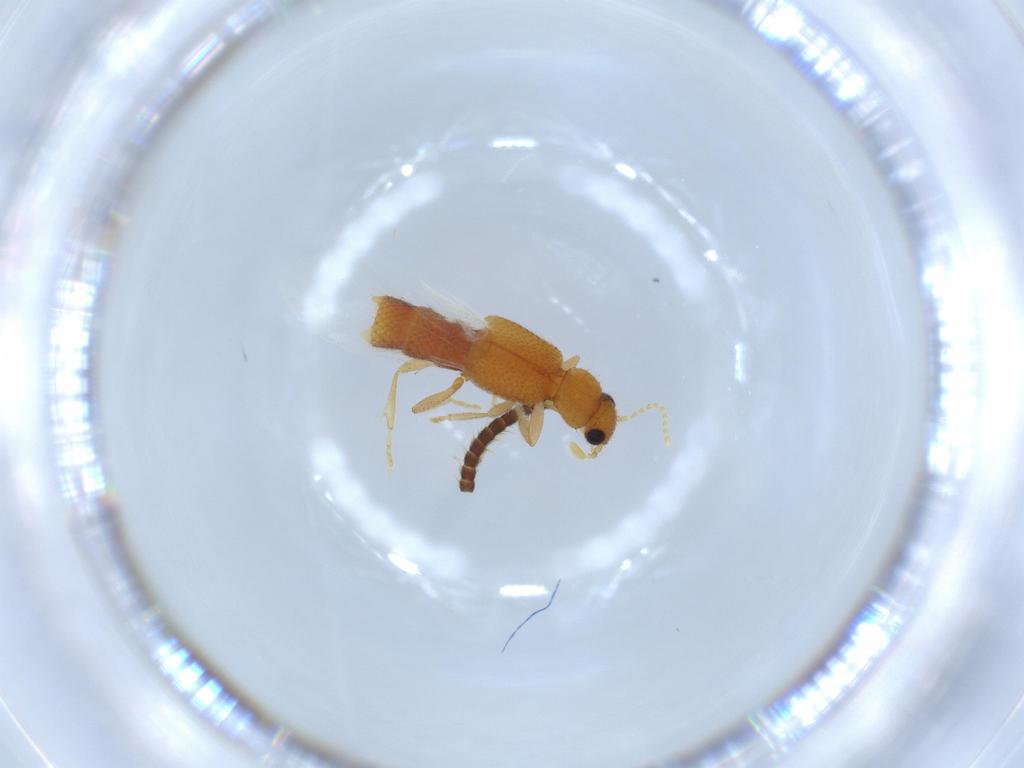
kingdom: Animalia
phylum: Arthropoda
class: Insecta
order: Coleoptera
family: Staphylinidae
